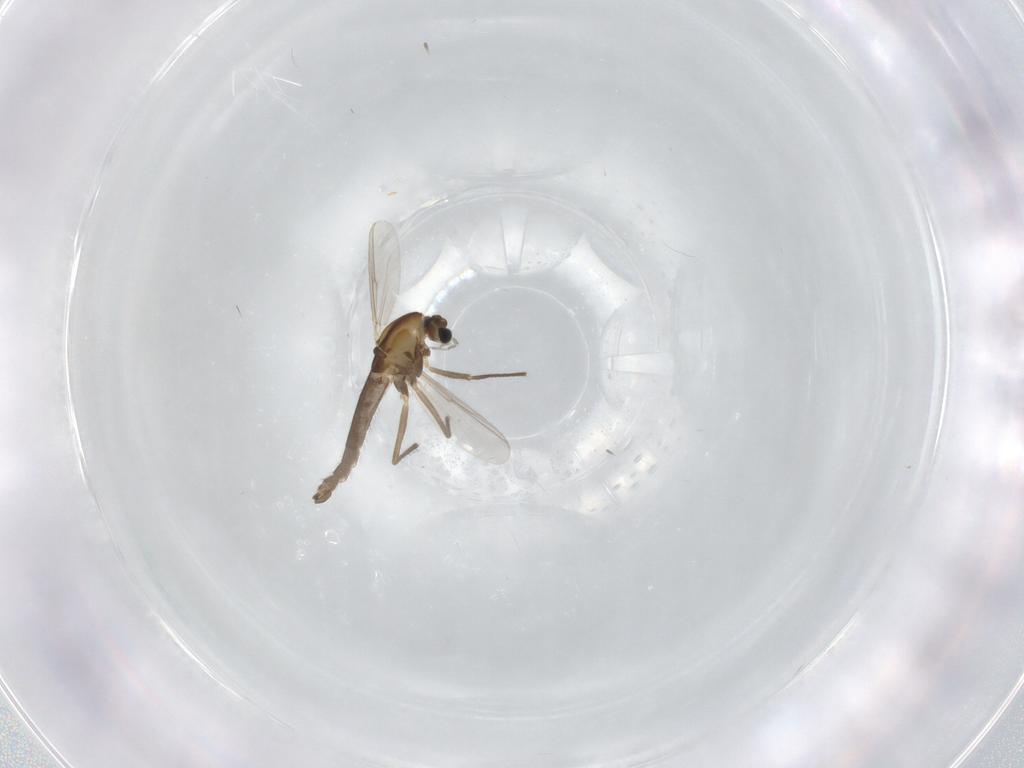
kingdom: Animalia
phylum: Arthropoda
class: Insecta
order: Diptera
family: Chironomidae
